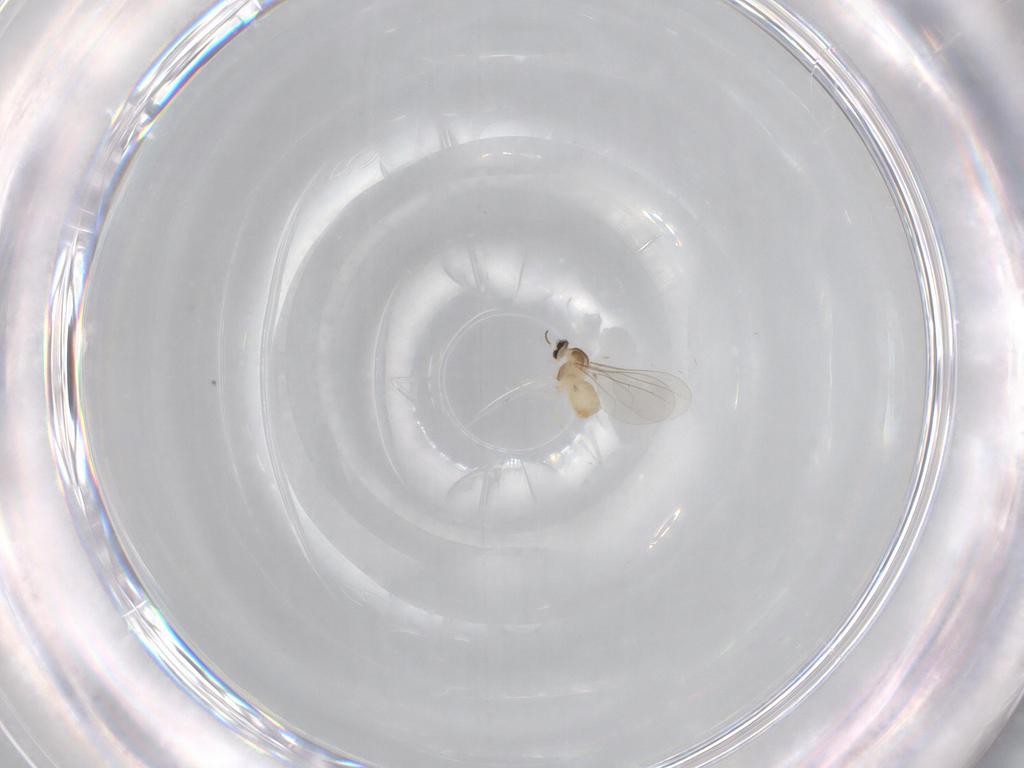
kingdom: Animalia
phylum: Arthropoda
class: Insecta
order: Diptera
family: Cecidomyiidae
